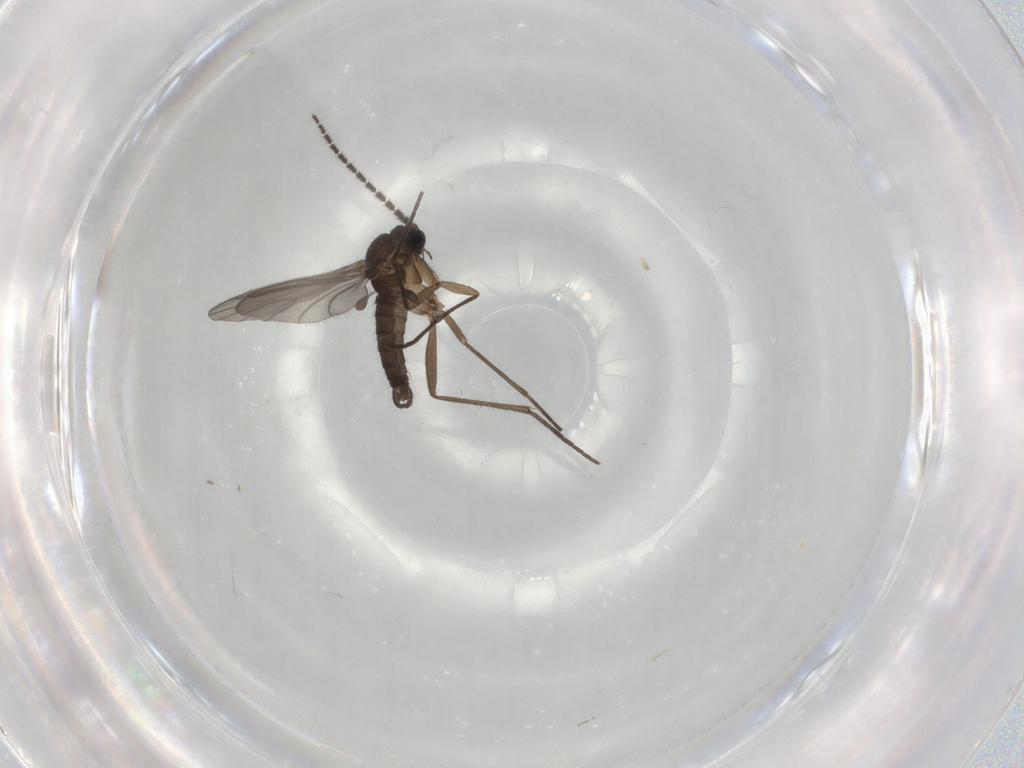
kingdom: Animalia
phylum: Arthropoda
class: Insecta
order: Diptera
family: Sciaridae
